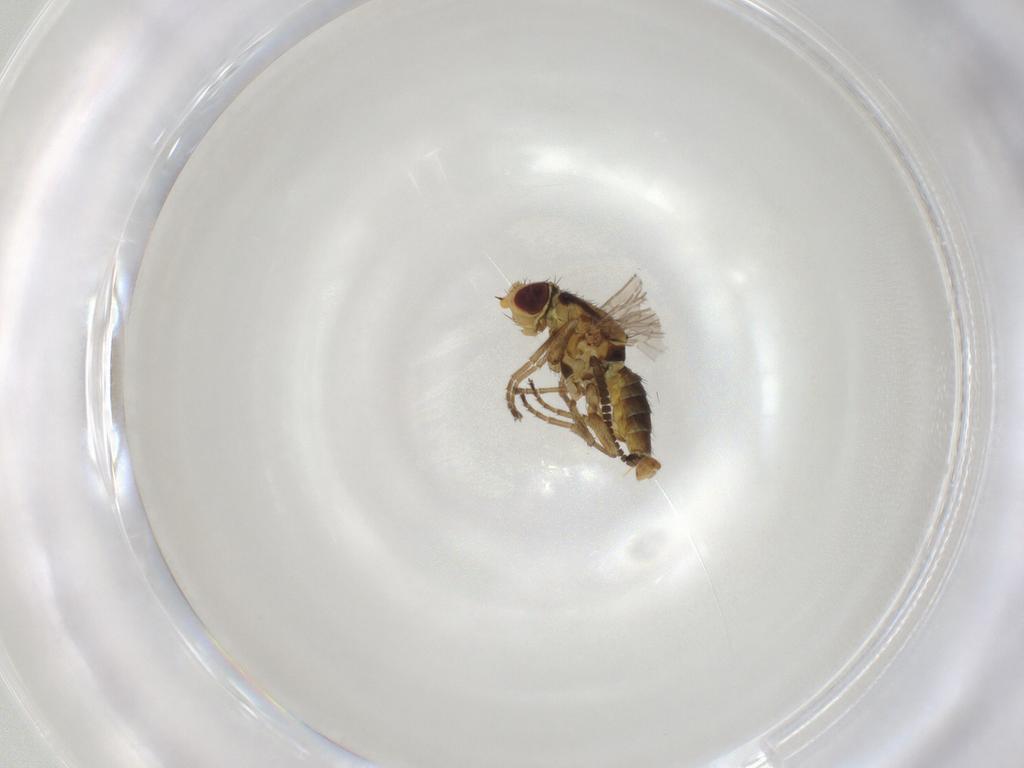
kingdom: Animalia
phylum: Arthropoda
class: Insecta
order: Diptera
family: Agromyzidae
